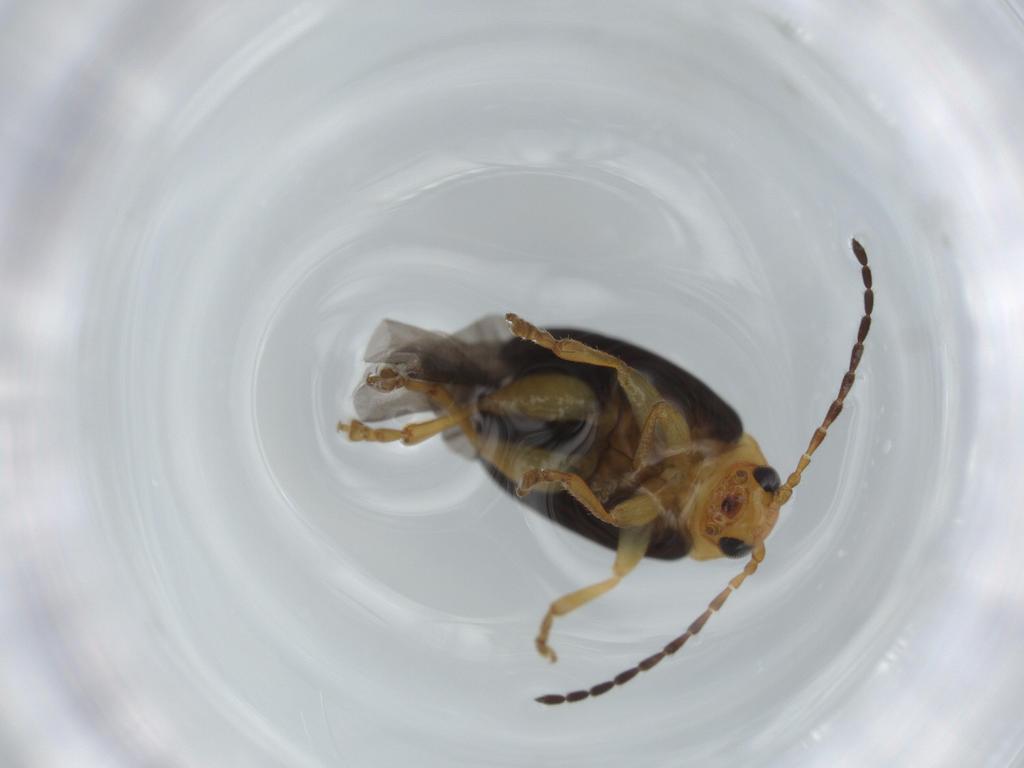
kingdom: Animalia
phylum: Arthropoda
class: Insecta
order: Coleoptera
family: Chrysomelidae
